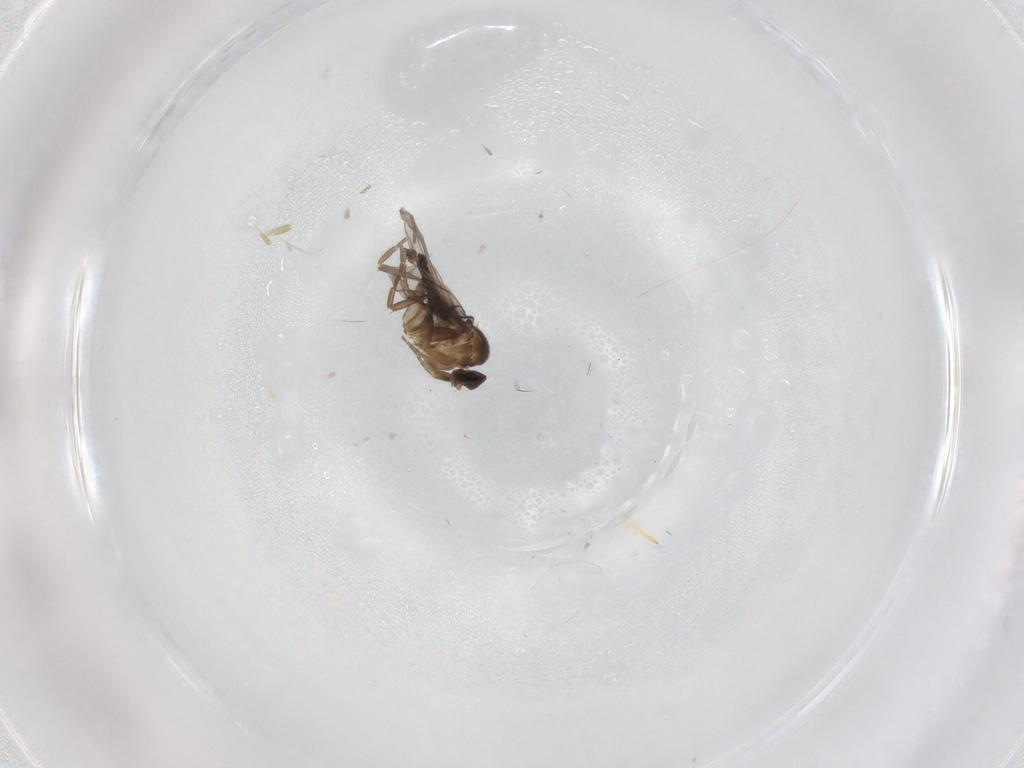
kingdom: Animalia
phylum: Arthropoda
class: Insecta
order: Diptera
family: Cecidomyiidae
